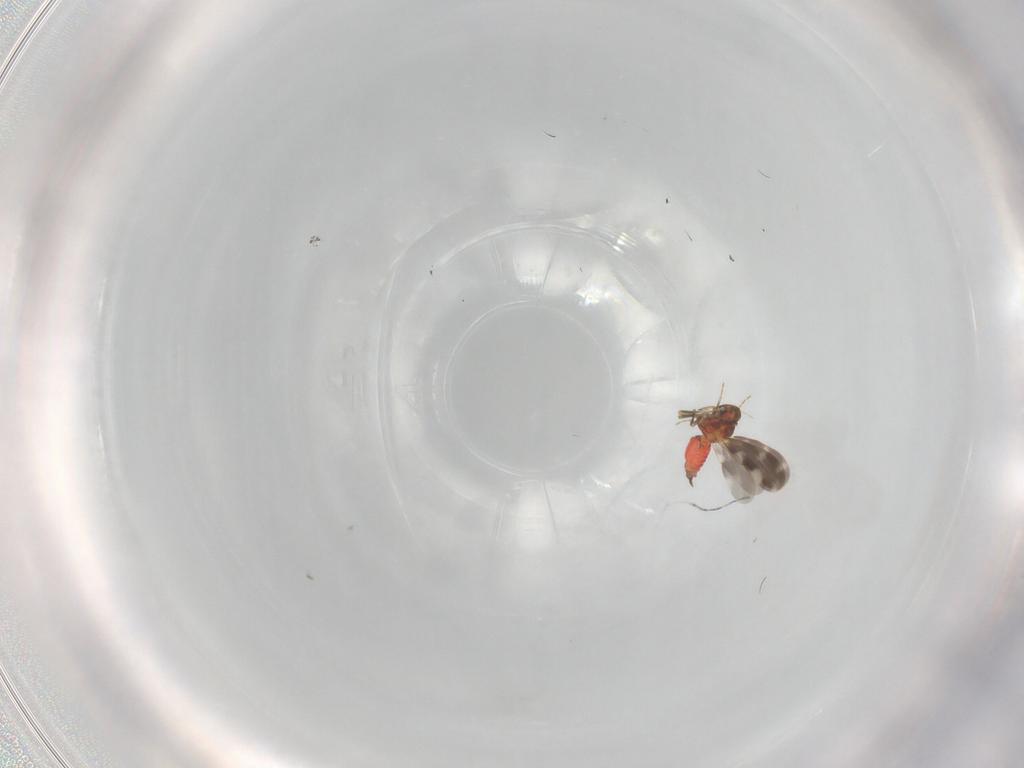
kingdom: Animalia
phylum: Arthropoda
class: Insecta
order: Hemiptera
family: Aleyrodidae
